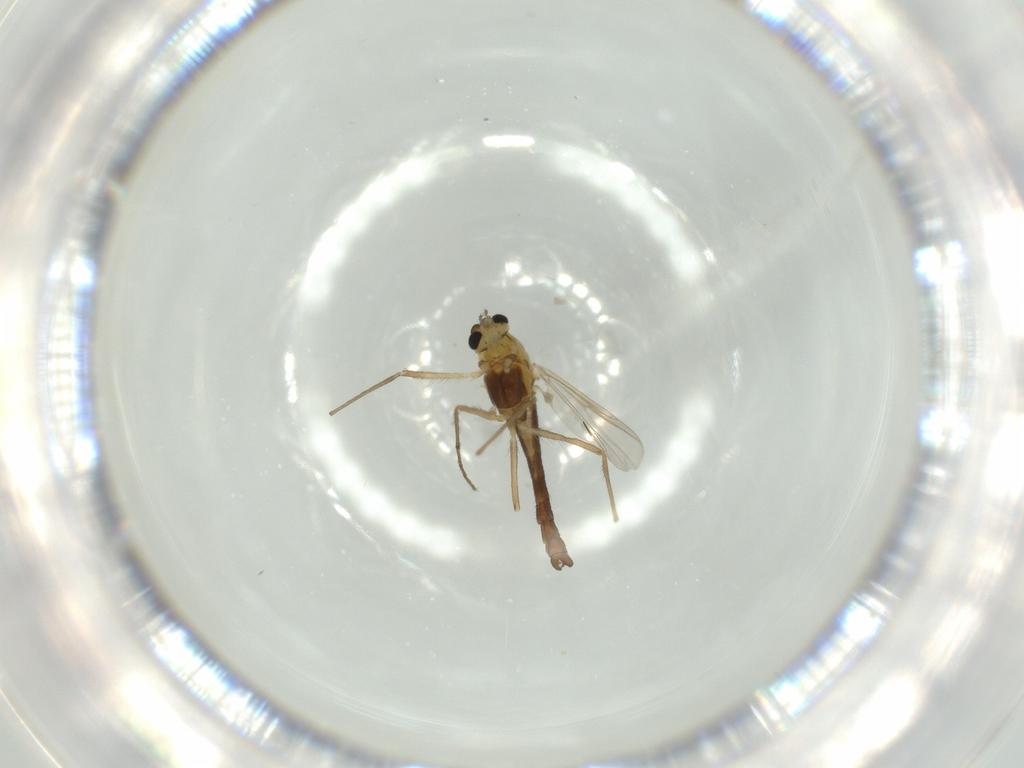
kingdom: Animalia
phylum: Arthropoda
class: Insecta
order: Diptera
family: Chironomidae
